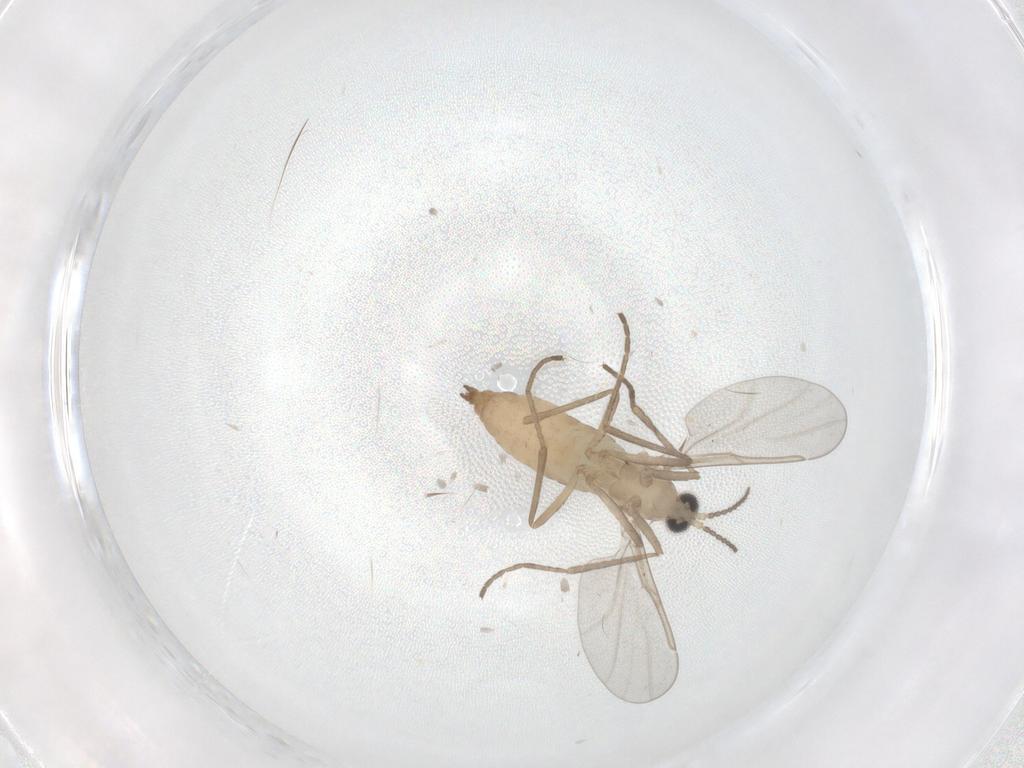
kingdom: Animalia
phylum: Arthropoda
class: Insecta
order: Diptera
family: Cecidomyiidae
